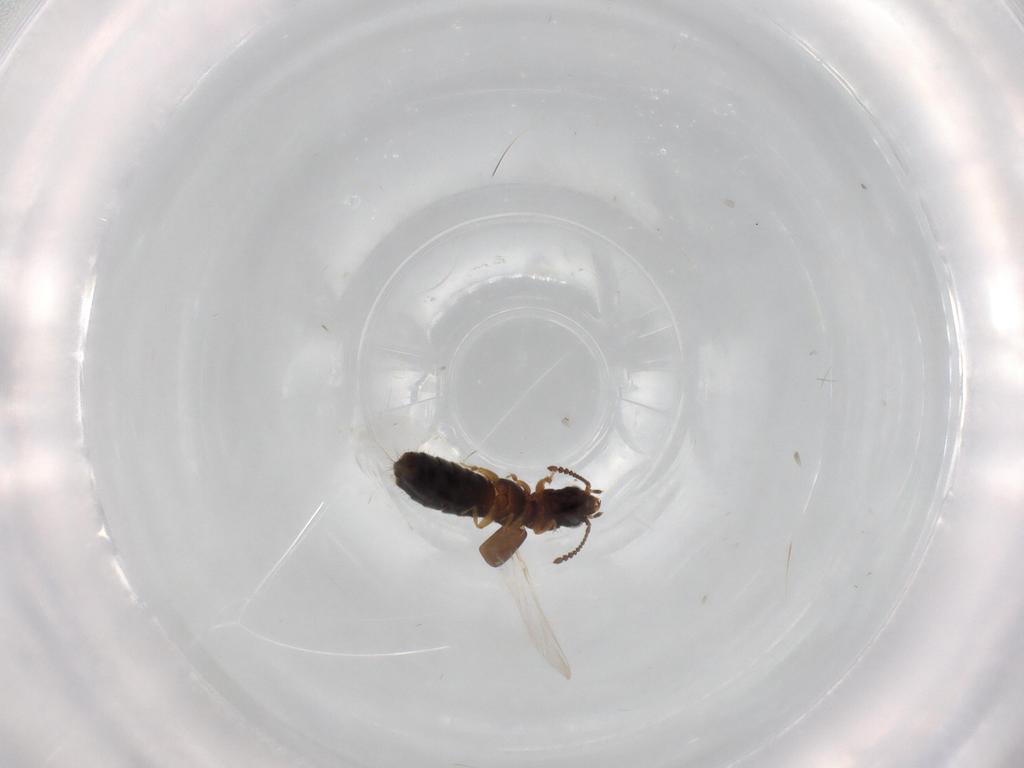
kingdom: Animalia
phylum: Arthropoda
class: Insecta
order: Coleoptera
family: Staphylinidae
